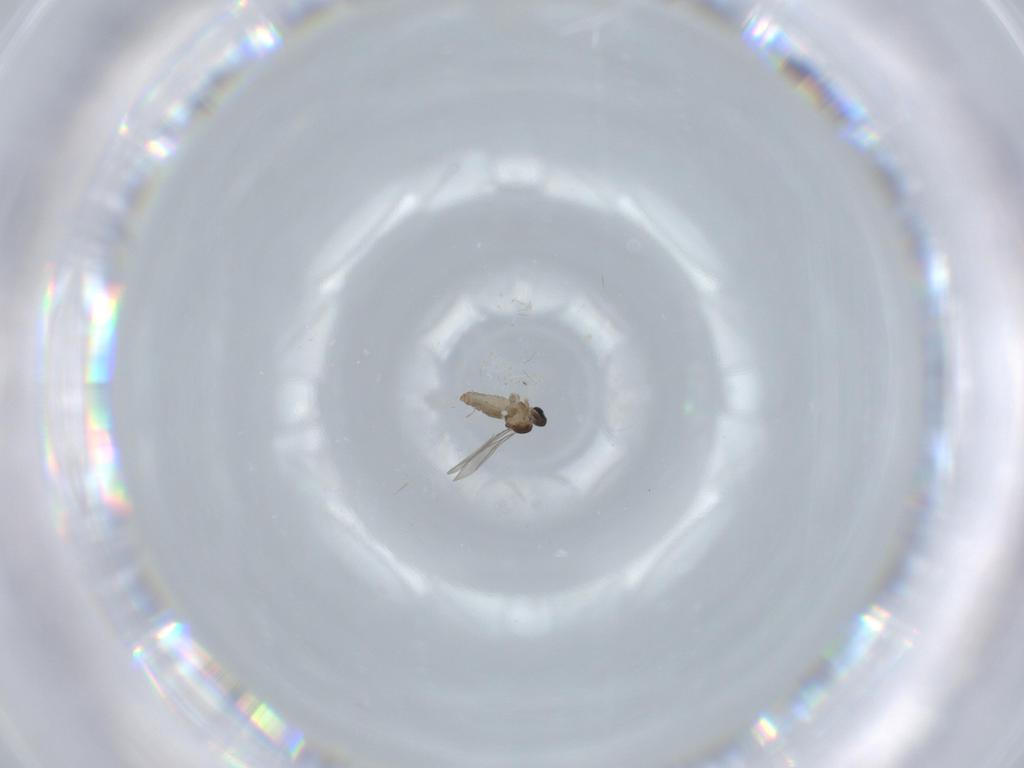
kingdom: Animalia
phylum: Arthropoda
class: Insecta
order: Diptera
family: Cecidomyiidae
